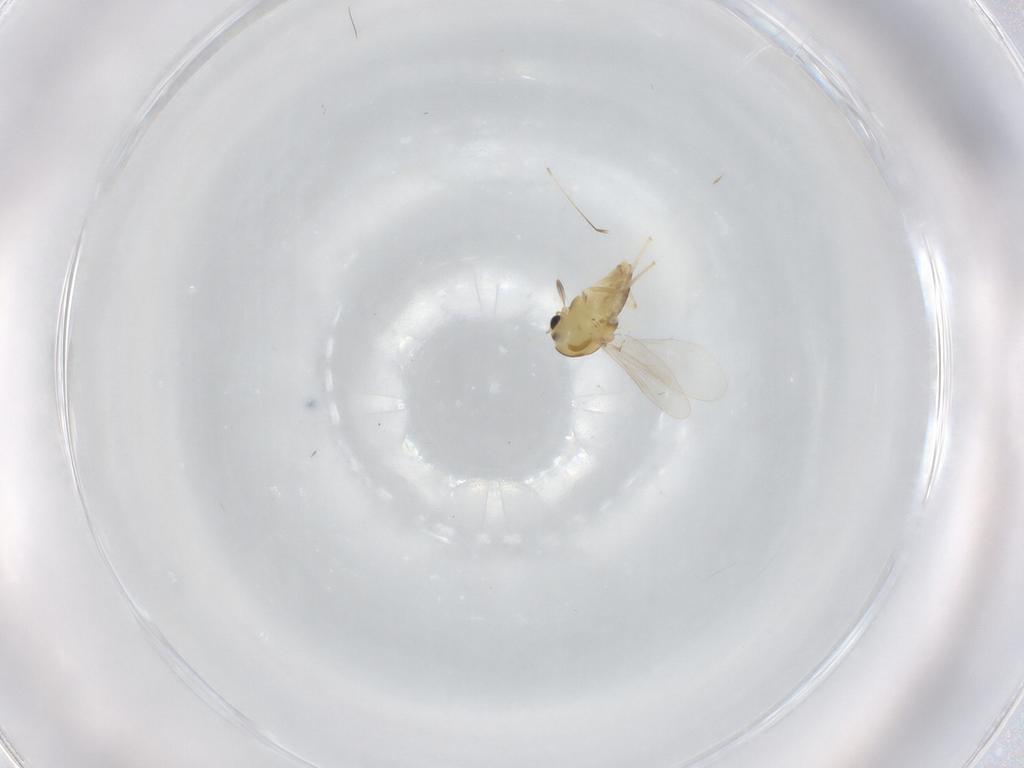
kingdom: Animalia
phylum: Arthropoda
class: Insecta
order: Diptera
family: Chironomidae
